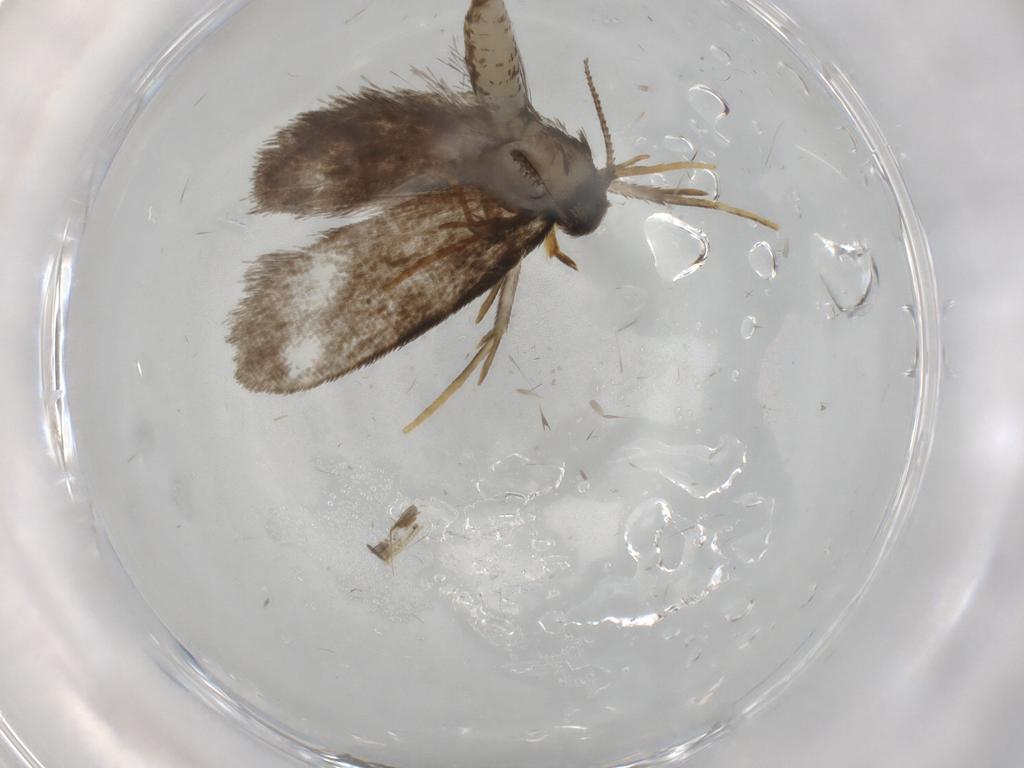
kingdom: Animalia
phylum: Arthropoda
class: Insecta
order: Lepidoptera
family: Psychidae
